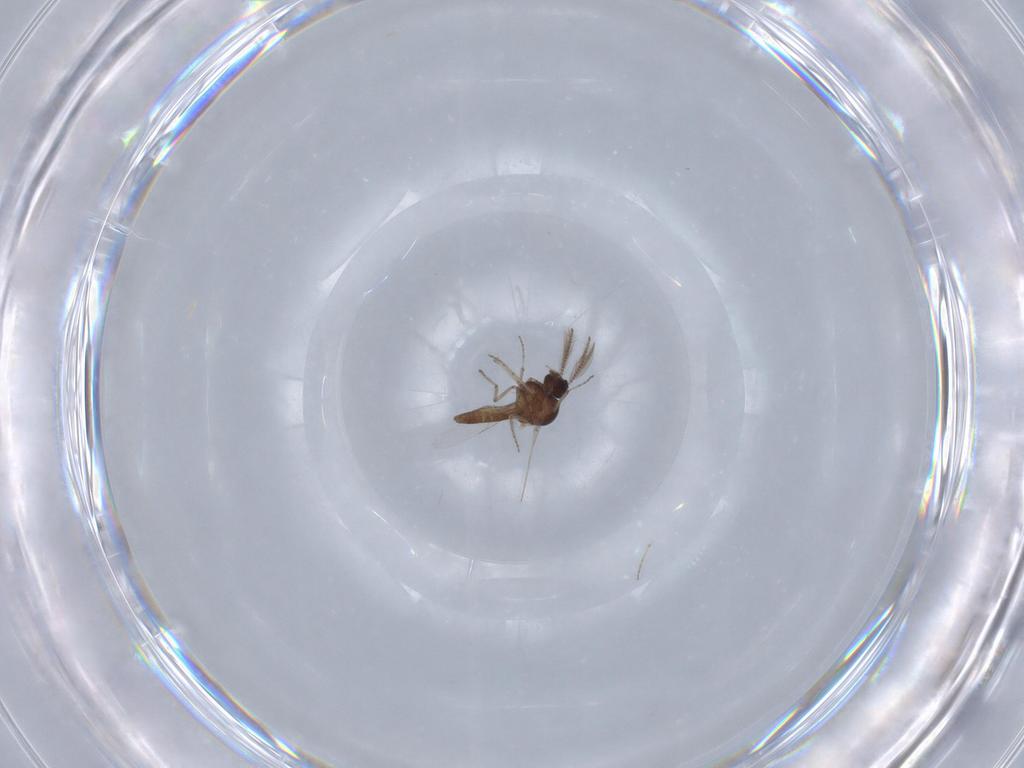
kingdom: Animalia
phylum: Arthropoda
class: Insecta
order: Diptera
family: Ceratopogonidae
